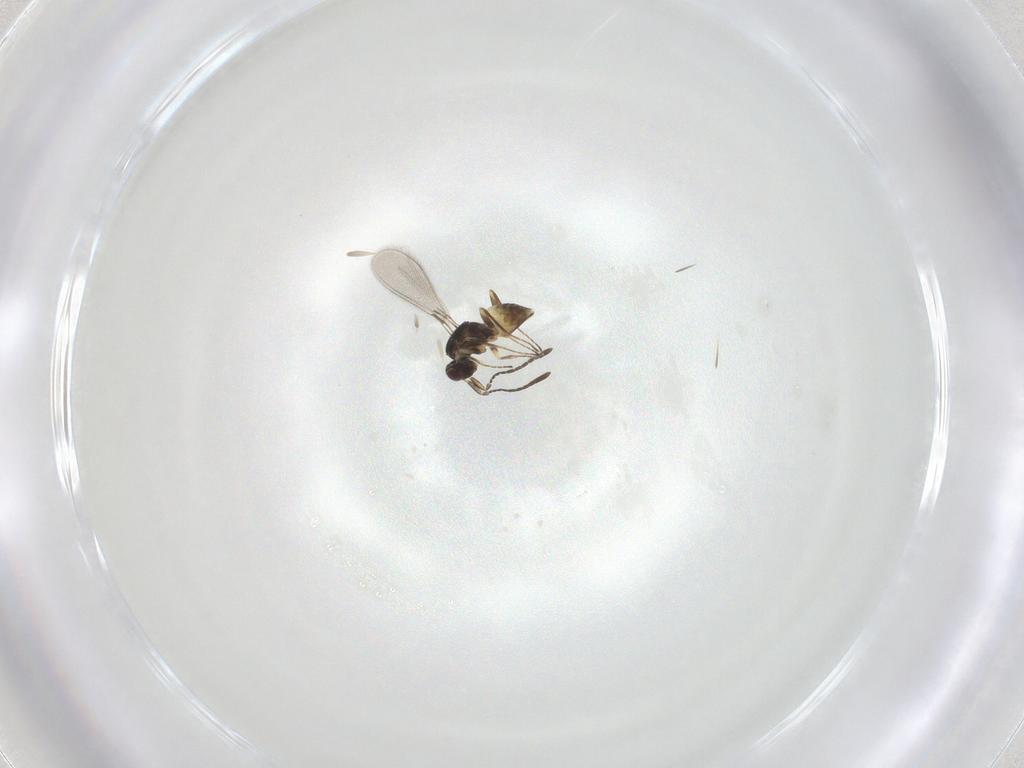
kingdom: Animalia
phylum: Arthropoda
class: Insecta
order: Hymenoptera
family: Mymaridae
